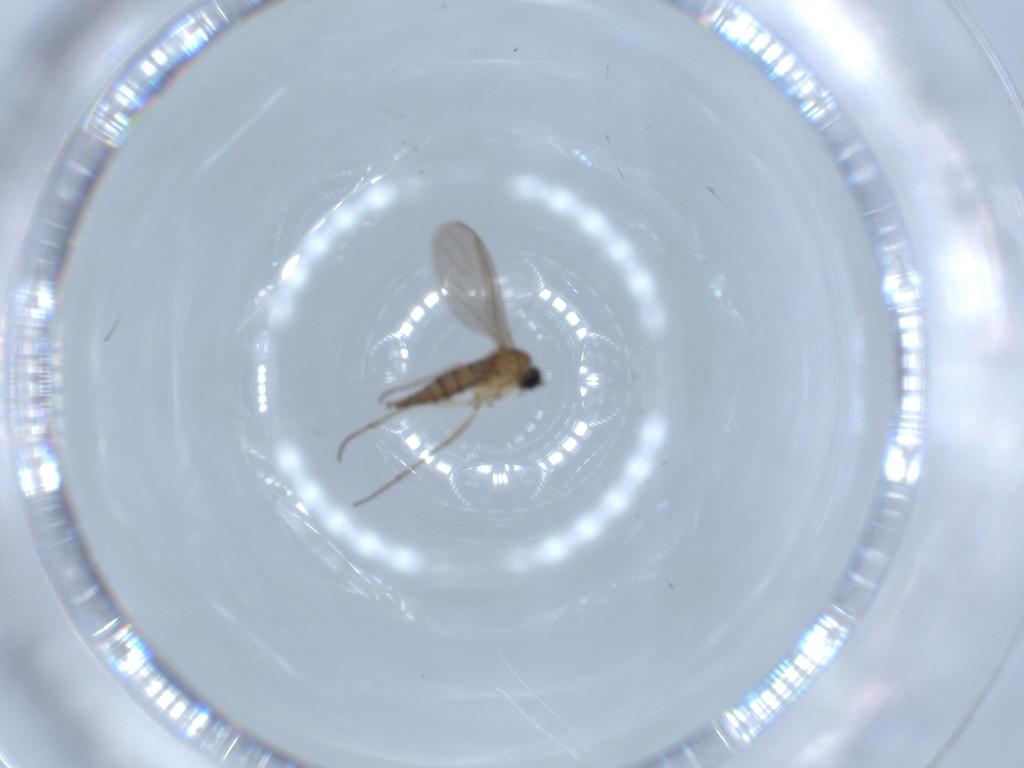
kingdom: Animalia
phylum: Arthropoda
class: Insecta
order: Diptera
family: Sciaridae
